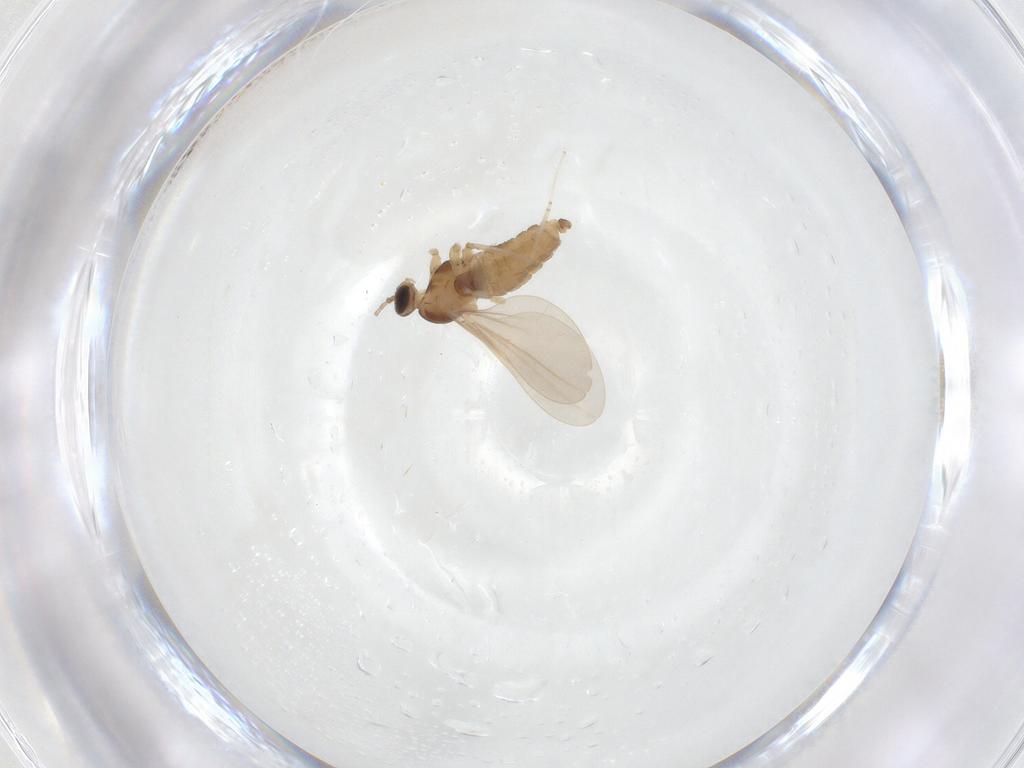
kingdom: Animalia
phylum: Arthropoda
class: Insecta
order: Diptera
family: Cecidomyiidae
